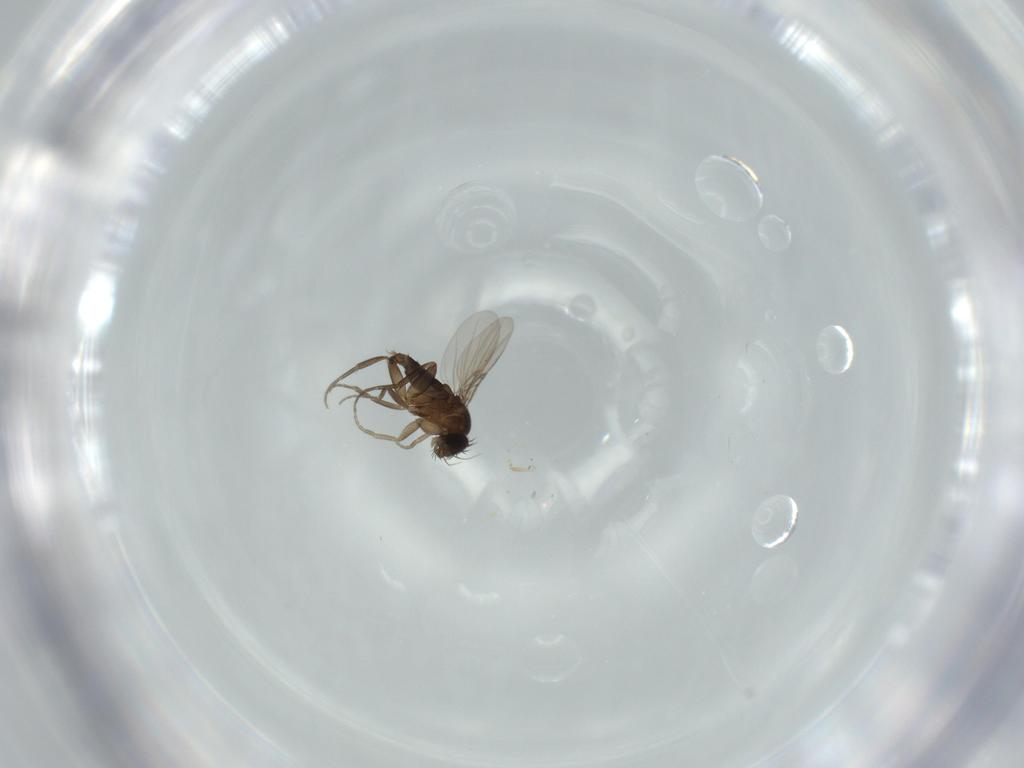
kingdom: Animalia
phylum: Arthropoda
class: Insecta
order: Diptera
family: Phoridae
